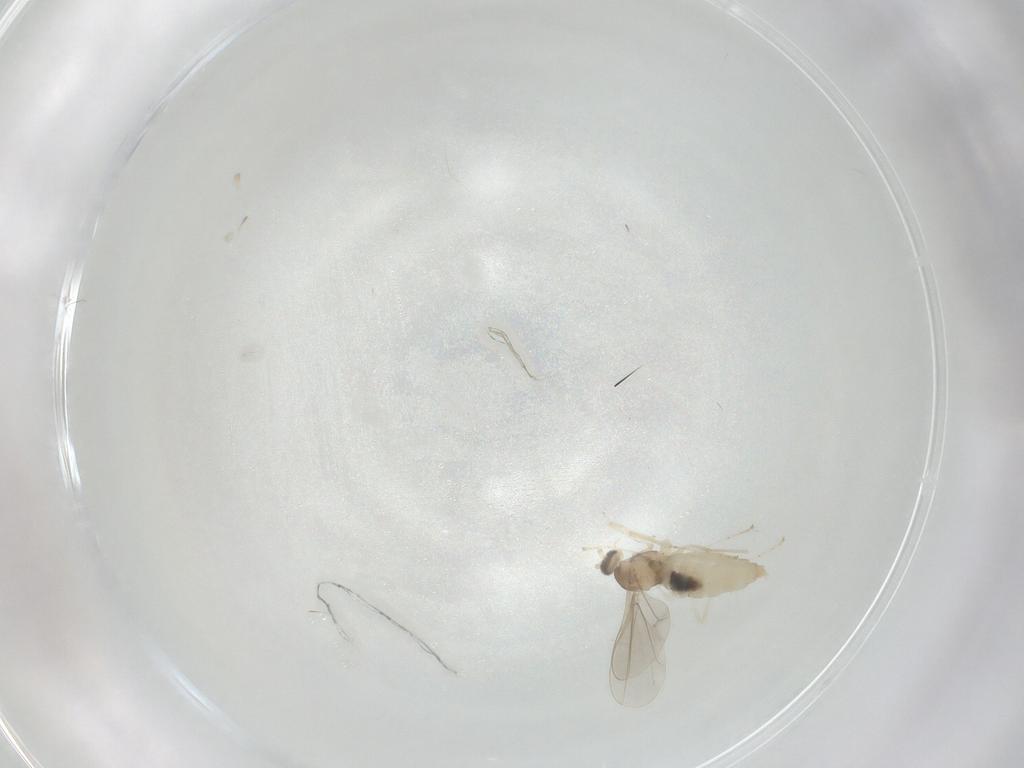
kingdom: Animalia
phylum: Arthropoda
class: Insecta
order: Diptera
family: Cecidomyiidae
